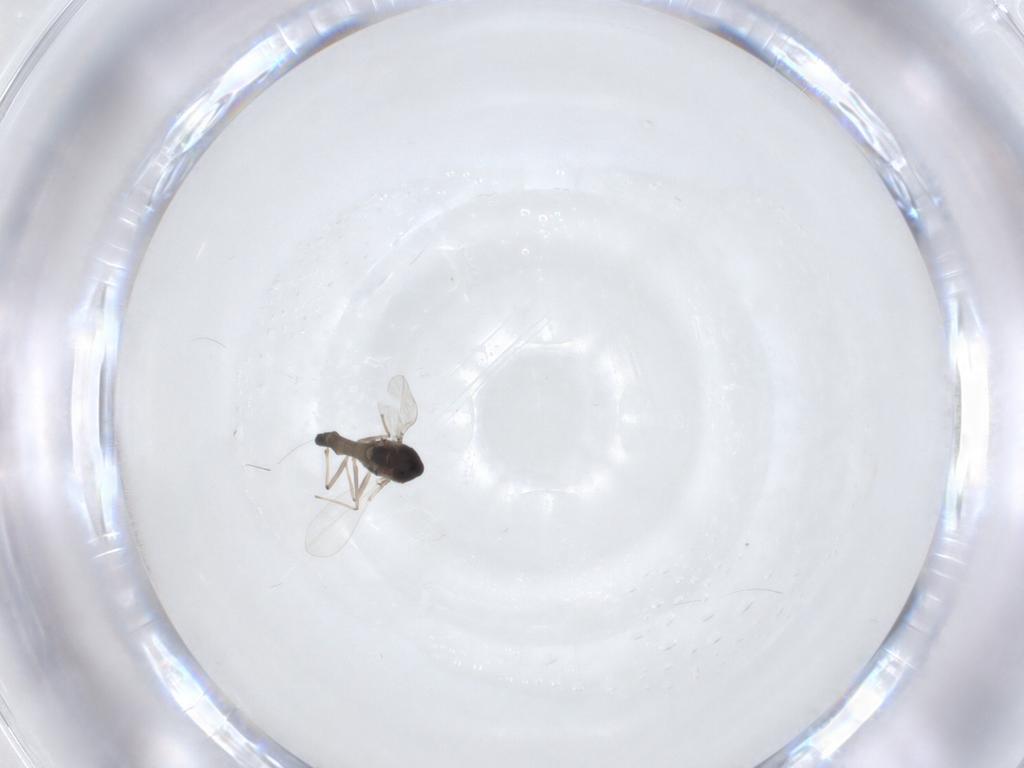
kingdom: Animalia
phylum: Arthropoda
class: Insecta
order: Diptera
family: Chironomidae
